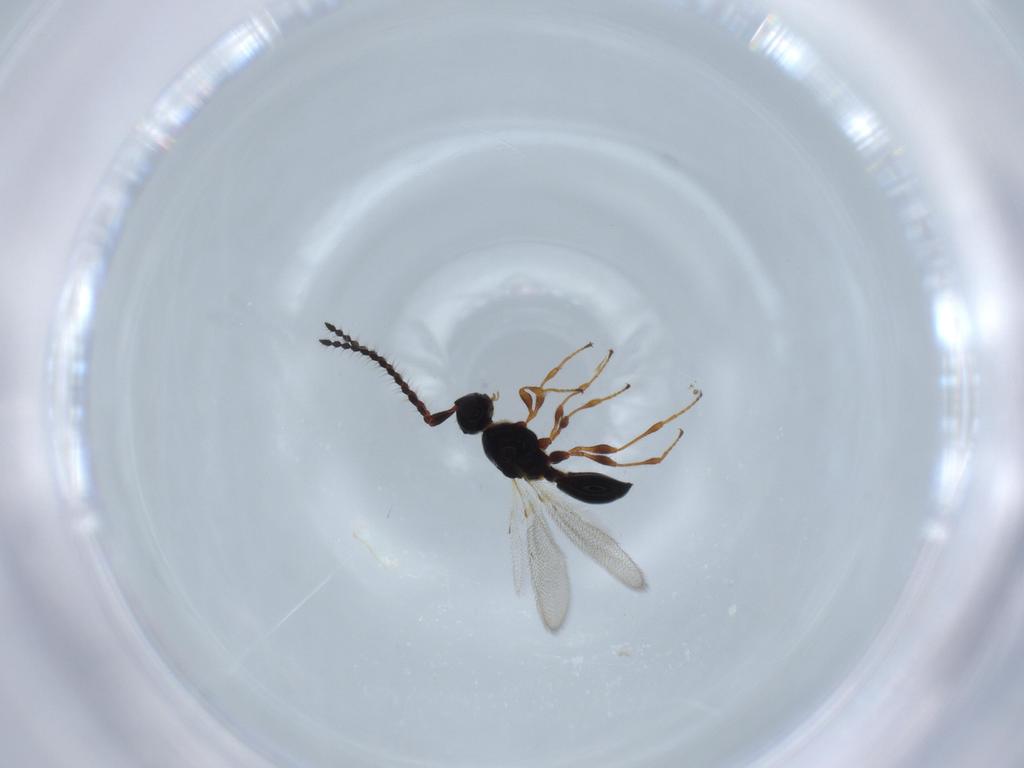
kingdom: Animalia
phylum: Arthropoda
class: Insecta
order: Hymenoptera
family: Diapriidae
